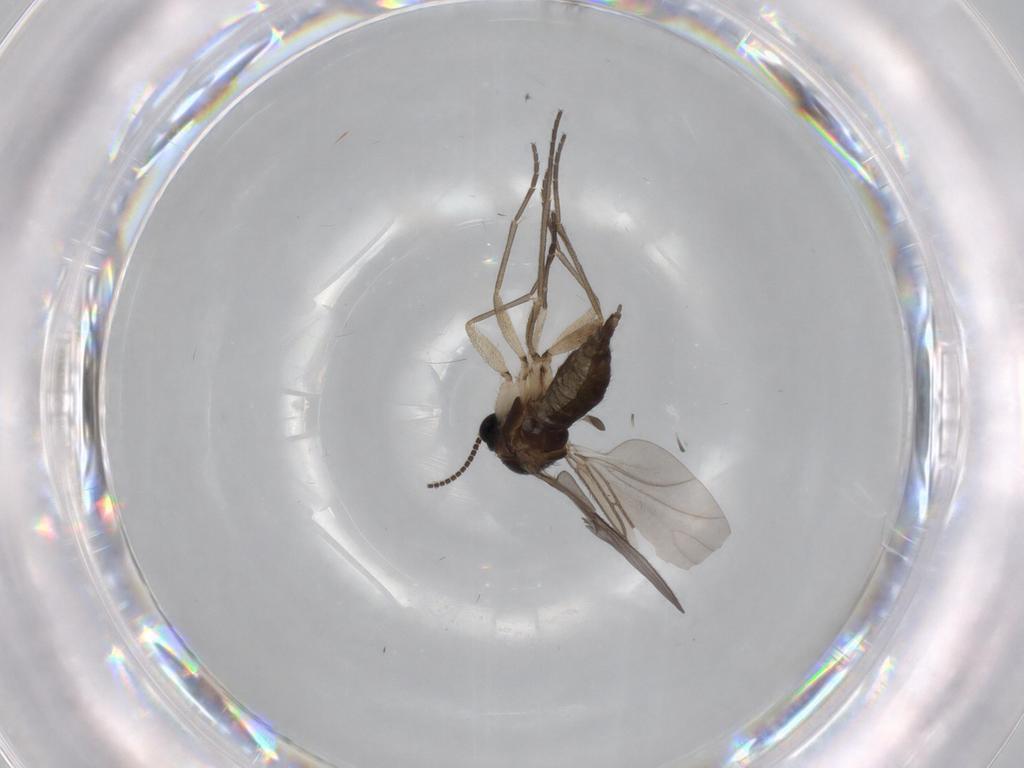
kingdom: Animalia
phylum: Arthropoda
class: Insecta
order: Diptera
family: Sciaridae
